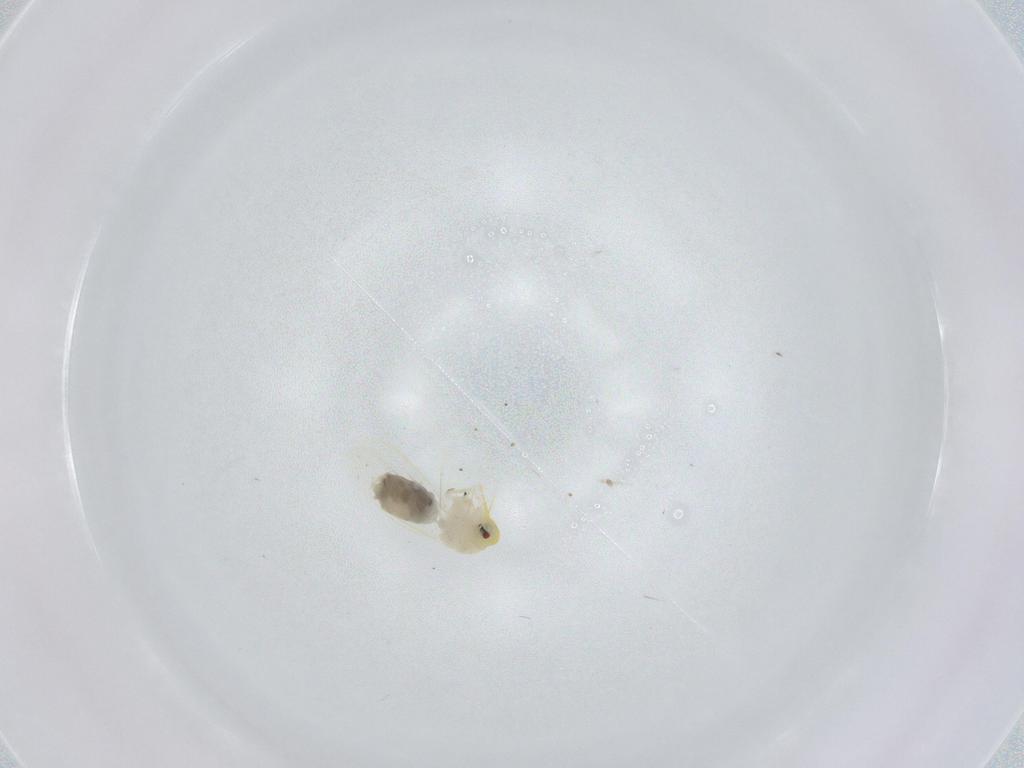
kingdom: Animalia
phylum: Arthropoda
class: Insecta
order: Hemiptera
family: Aleyrodidae
